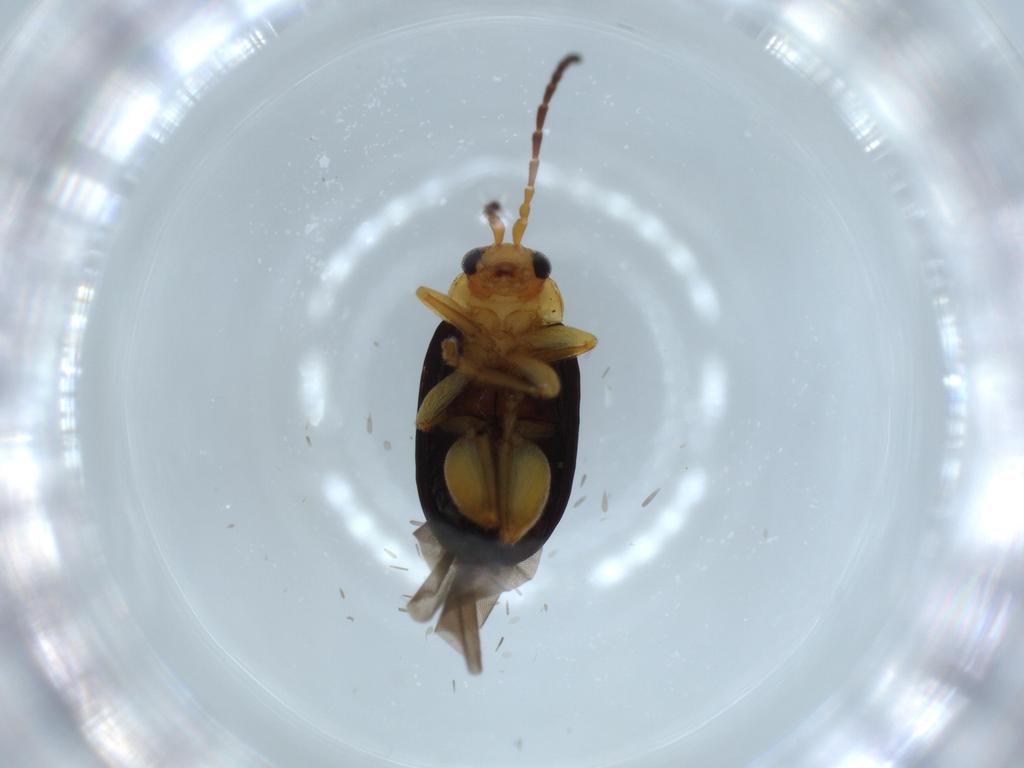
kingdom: Animalia
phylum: Arthropoda
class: Insecta
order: Coleoptera
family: Chrysomelidae
